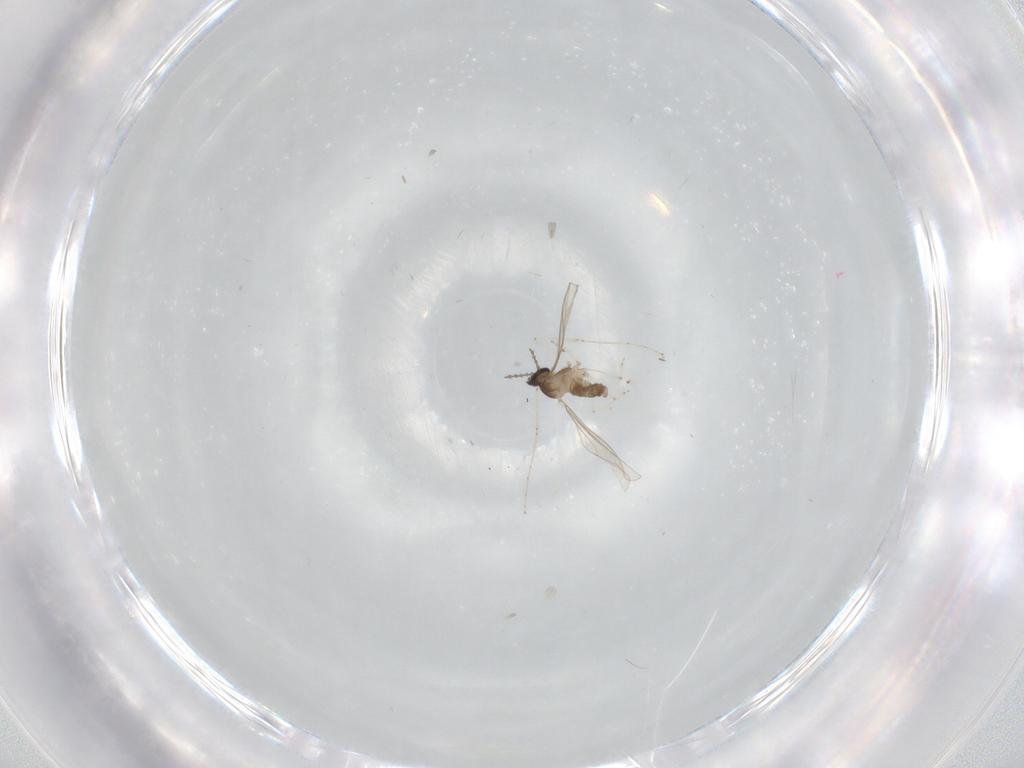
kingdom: Animalia
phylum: Arthropoda
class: Insecta
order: Diptera
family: Cecidomyiidae
